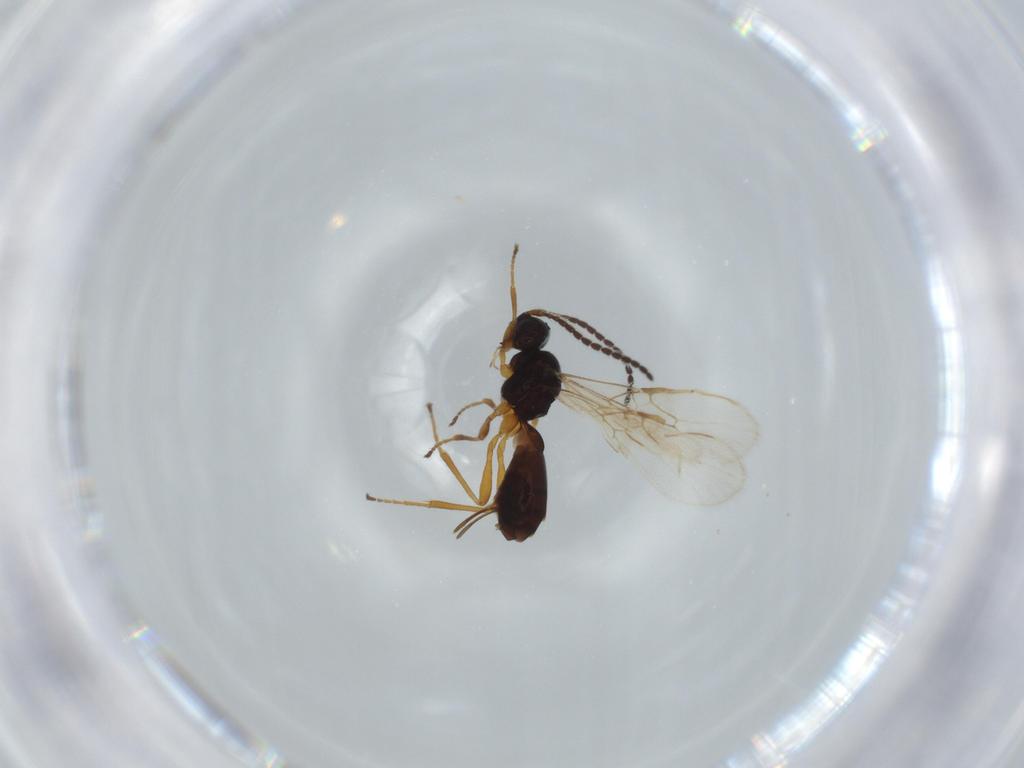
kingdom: Animalia
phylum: Arthropoda
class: Insecta
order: Hymenoptera
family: Braconidae
